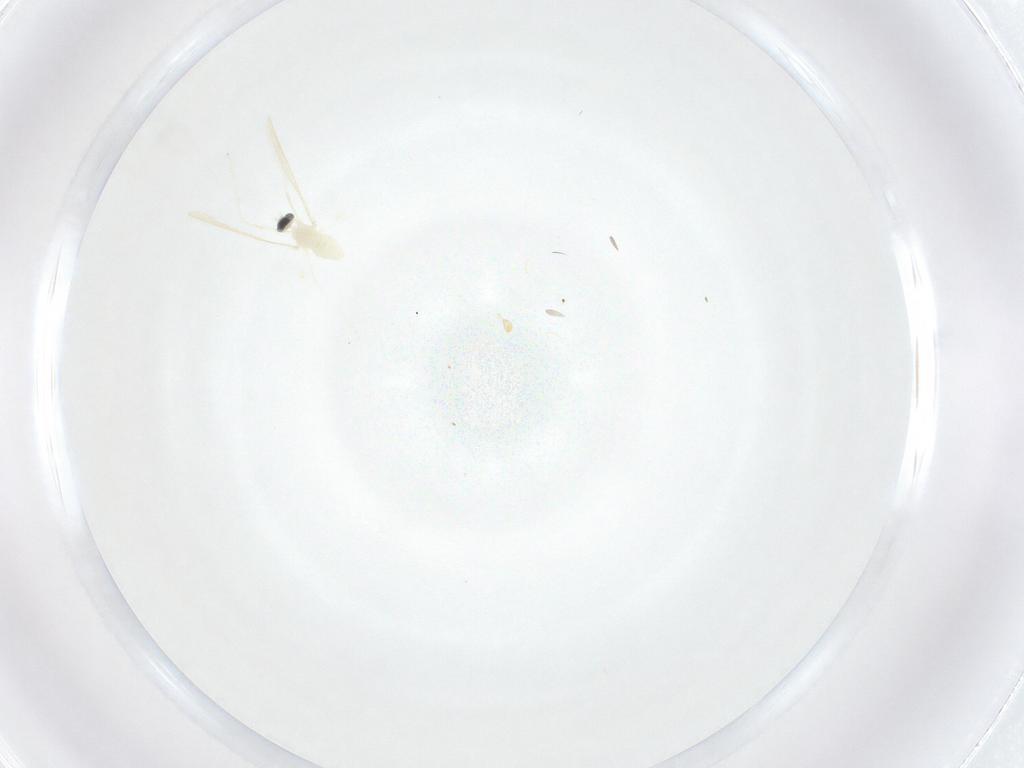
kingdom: Animalia
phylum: Arthropoda
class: Insecta
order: Diptera
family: Cecidomyiidae
